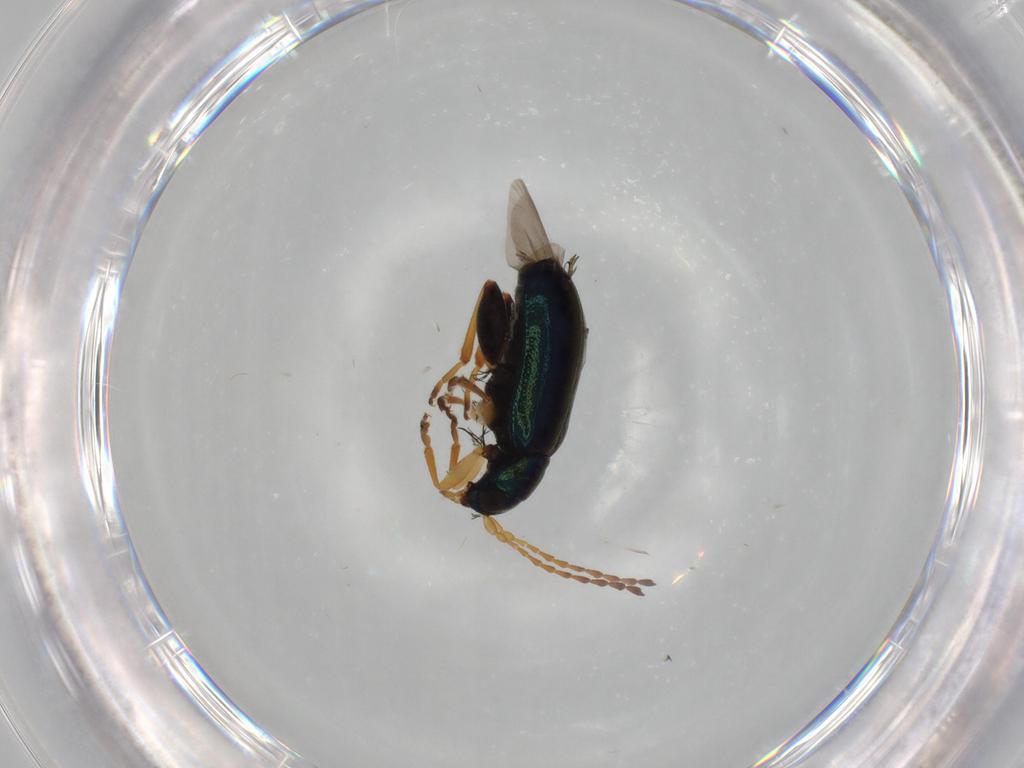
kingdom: Animalia
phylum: Arthropoda
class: Insecta
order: Coleoptera
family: Chrysomelidae
